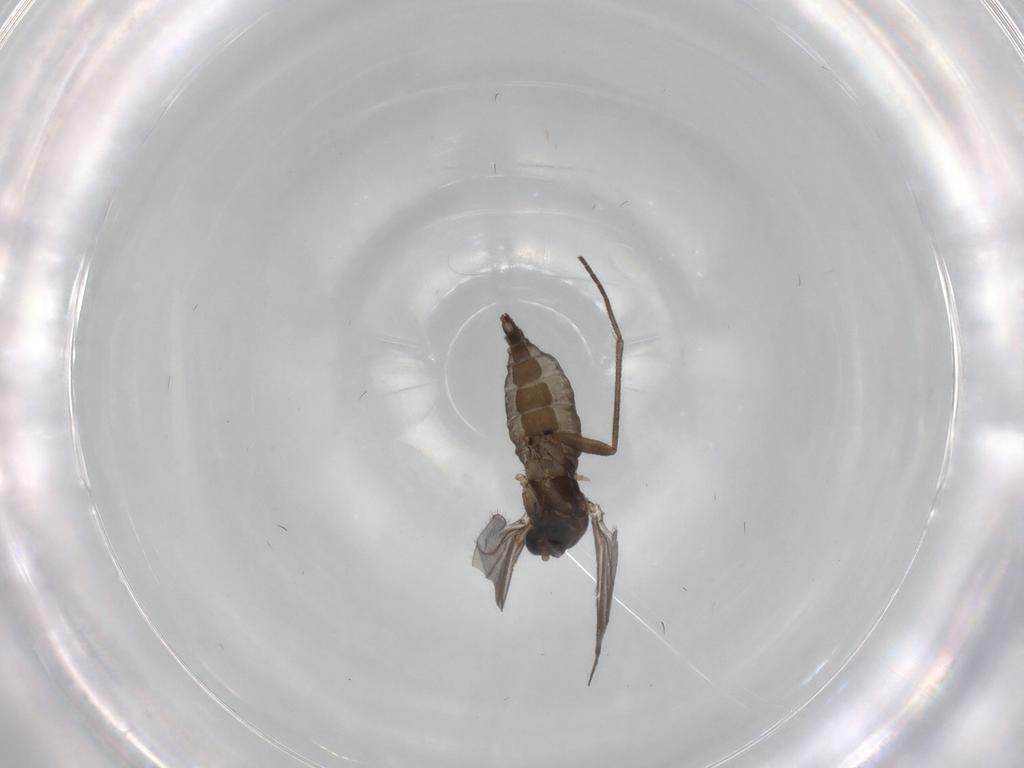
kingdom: Animalia
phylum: Arthropoda
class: Insecta
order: Diptera
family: Sciaridae
